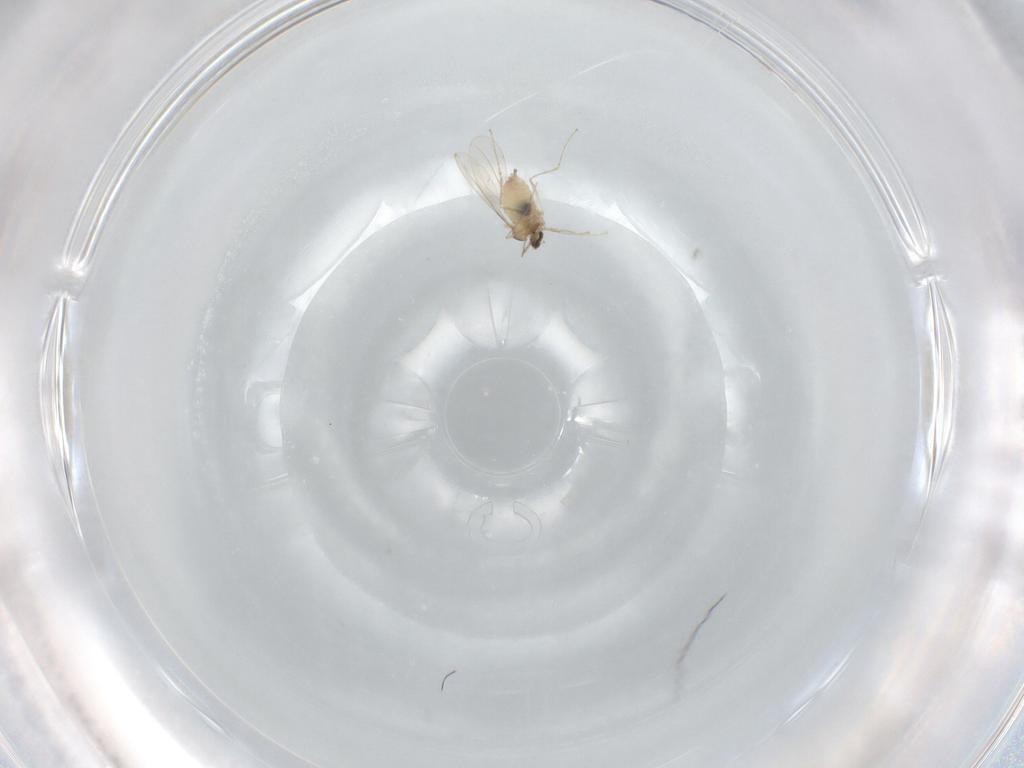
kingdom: Animalia
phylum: Arthropoda
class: Insecta
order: Diptera
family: Cecidomyiidae
